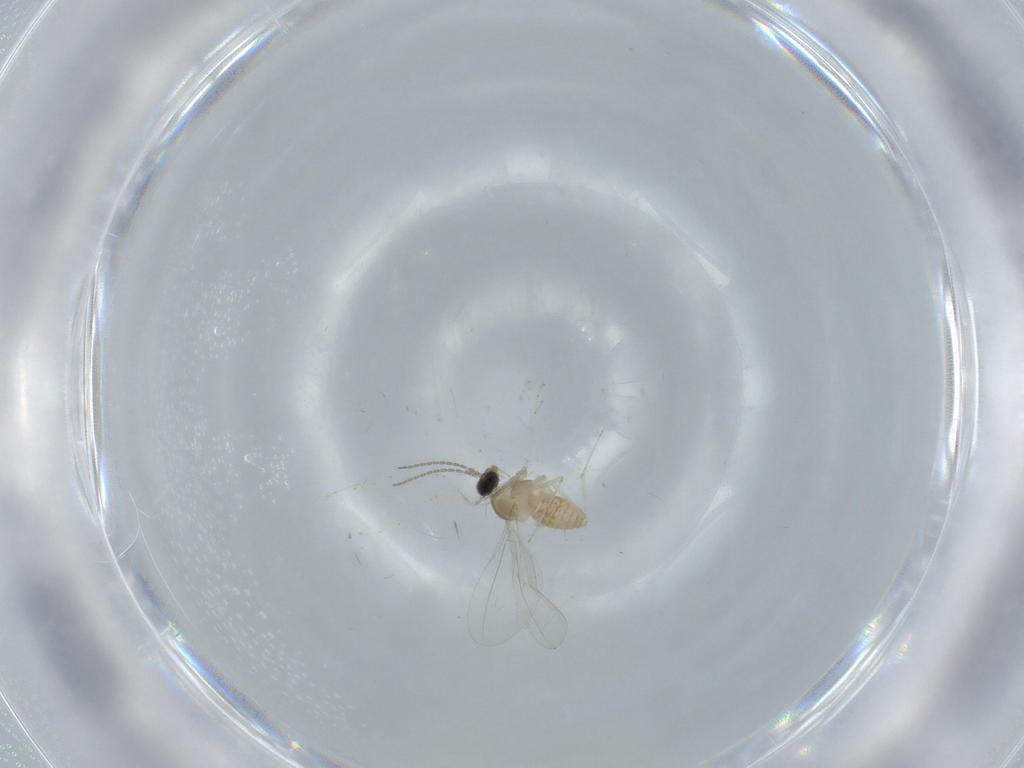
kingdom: Animalia
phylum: Arthropoda
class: Insecta
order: Diptera
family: Cecidomyiidae
